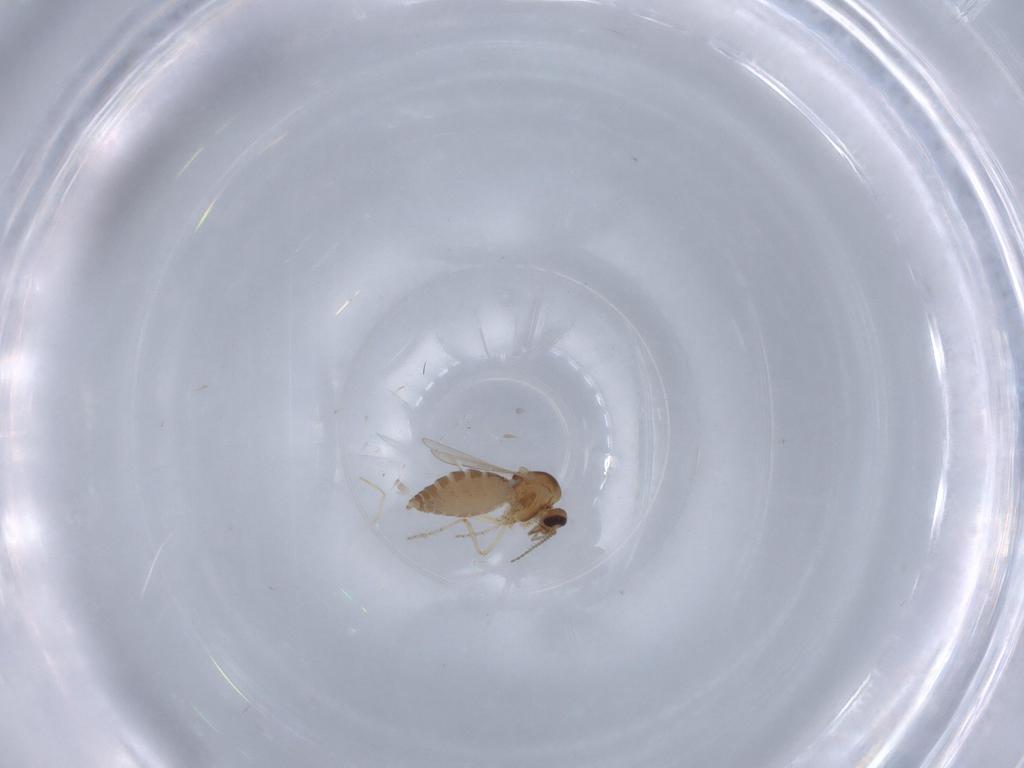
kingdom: Animalia
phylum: Arthropoda
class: Insecta
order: Diptera
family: Ceratopogonidae
